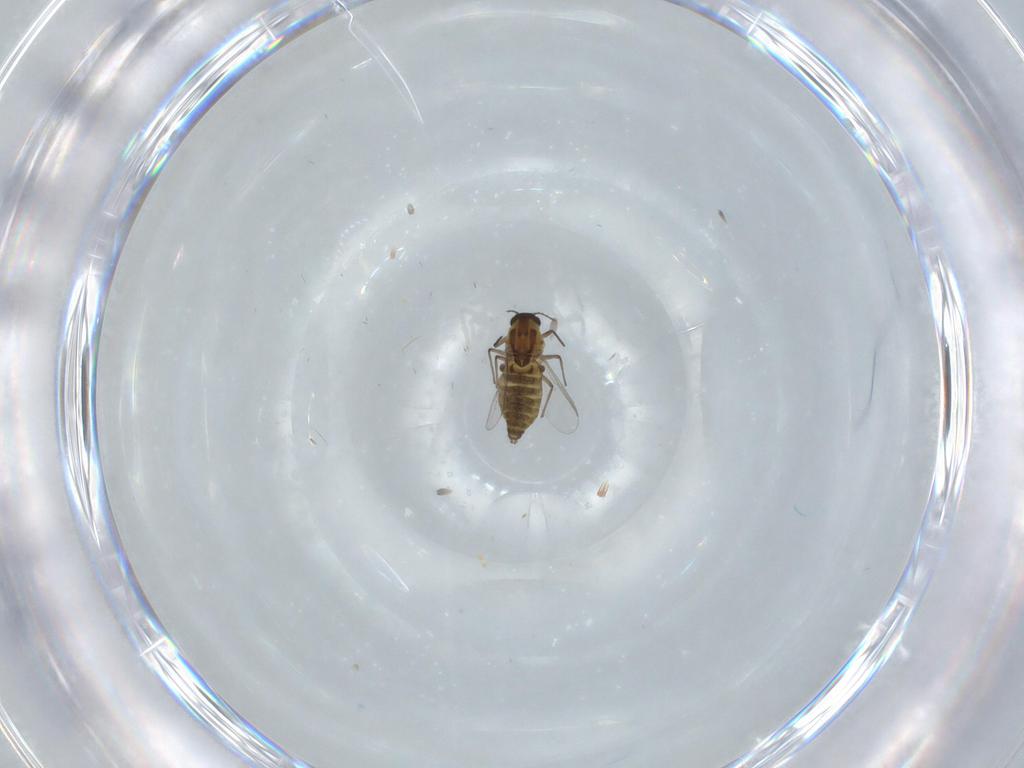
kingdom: Animalia
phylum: Arthropoda
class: Insecta
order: Diptera
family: Chironomidae
